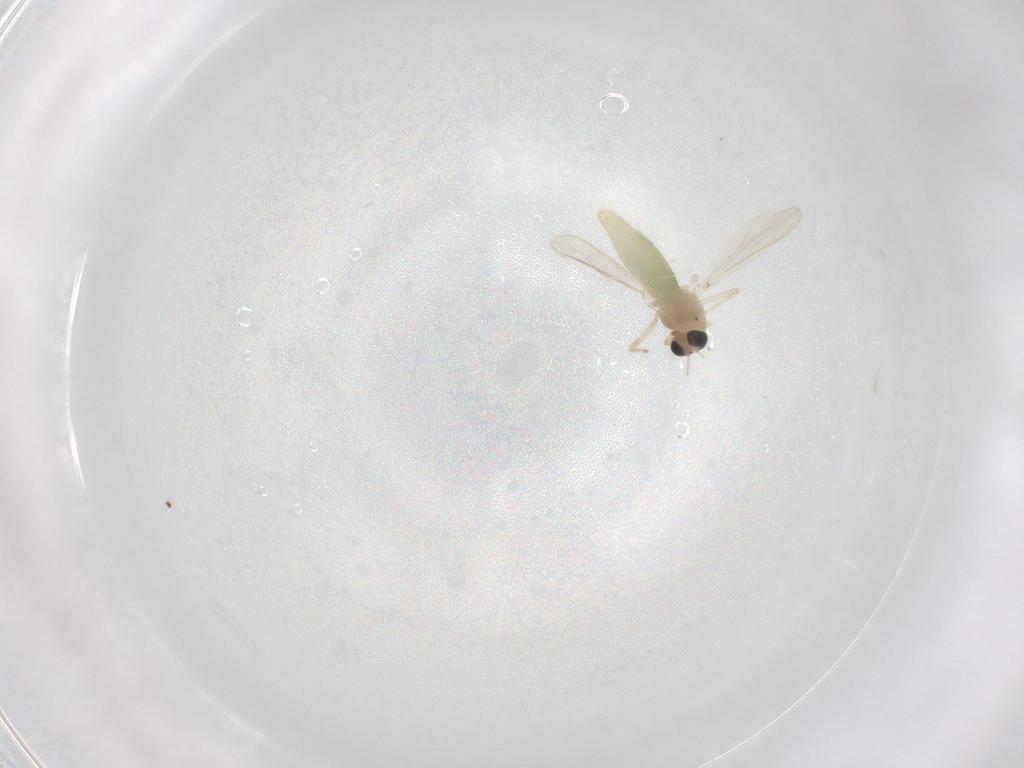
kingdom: Animalia
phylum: Arthropoda
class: Insecta
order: Diptera
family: Chironomidae
